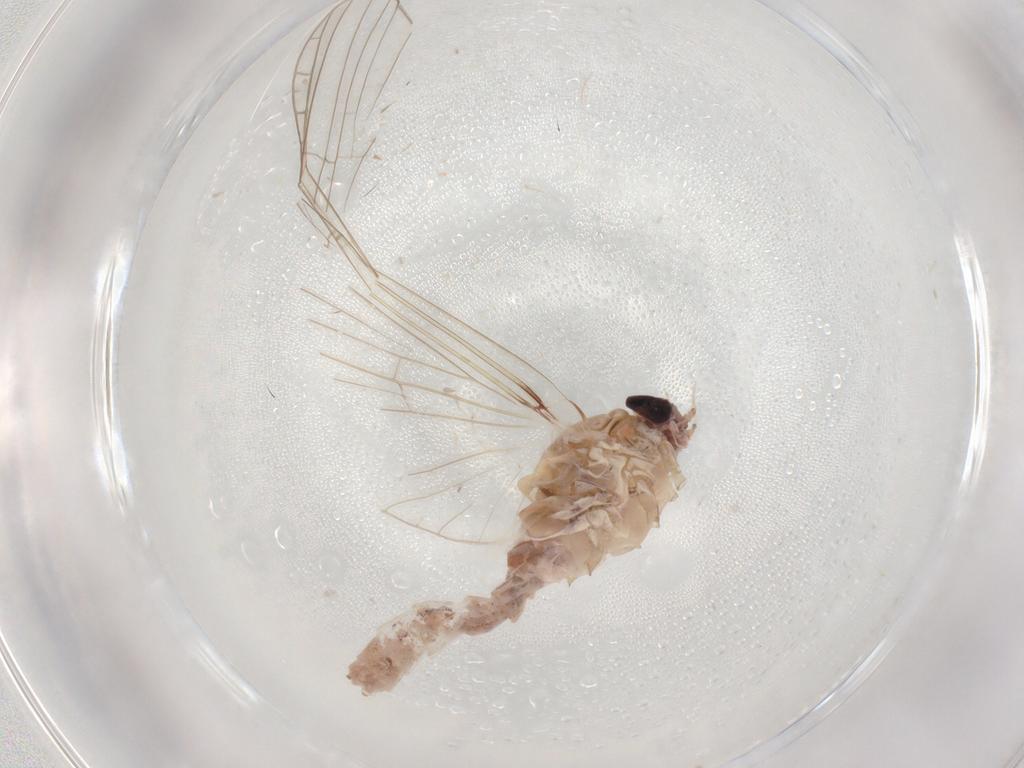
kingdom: Animalia
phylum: Arthropoda
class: Insecta
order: Ephemeroptera
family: Baetidae
